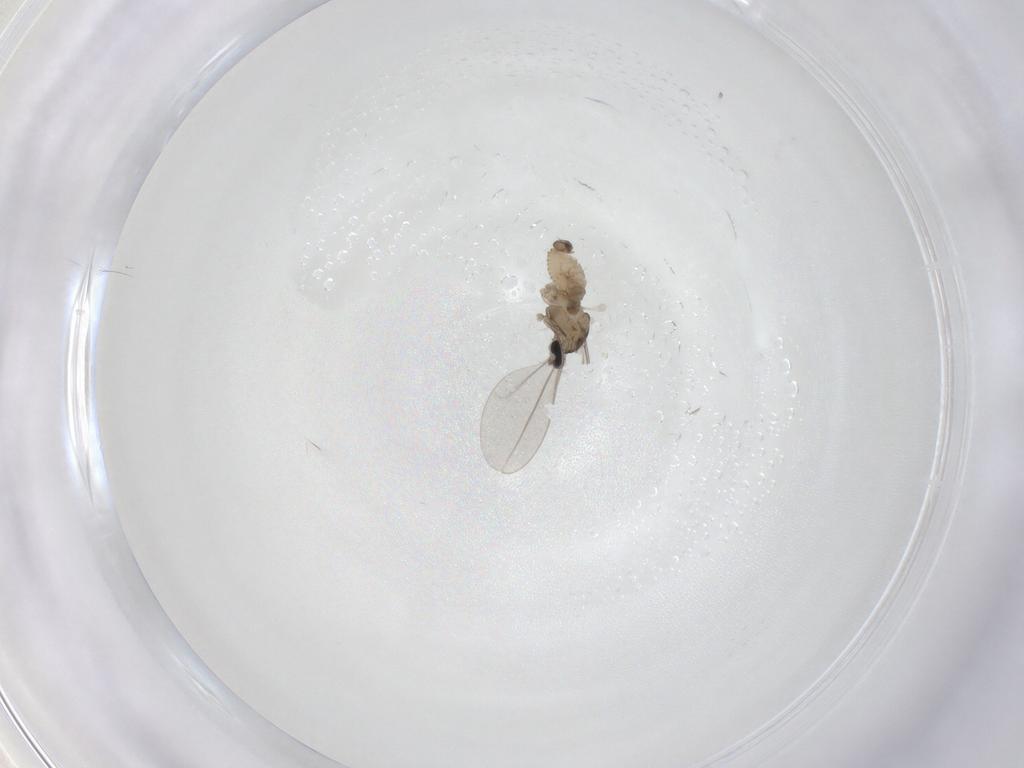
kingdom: Animalia
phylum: Arthropoda
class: Insecta
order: Diptera
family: Cecidomyiidae
